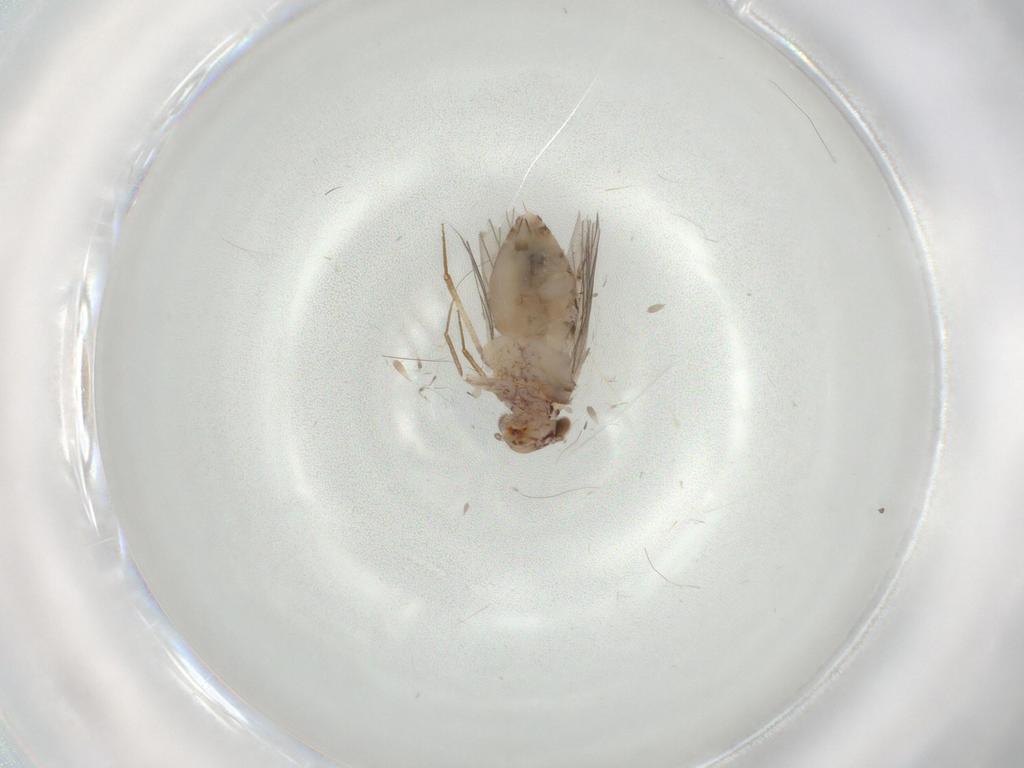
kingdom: Animalia
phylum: Arthropoda
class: Insecta
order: Psocodea
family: Lepidopsocidae
